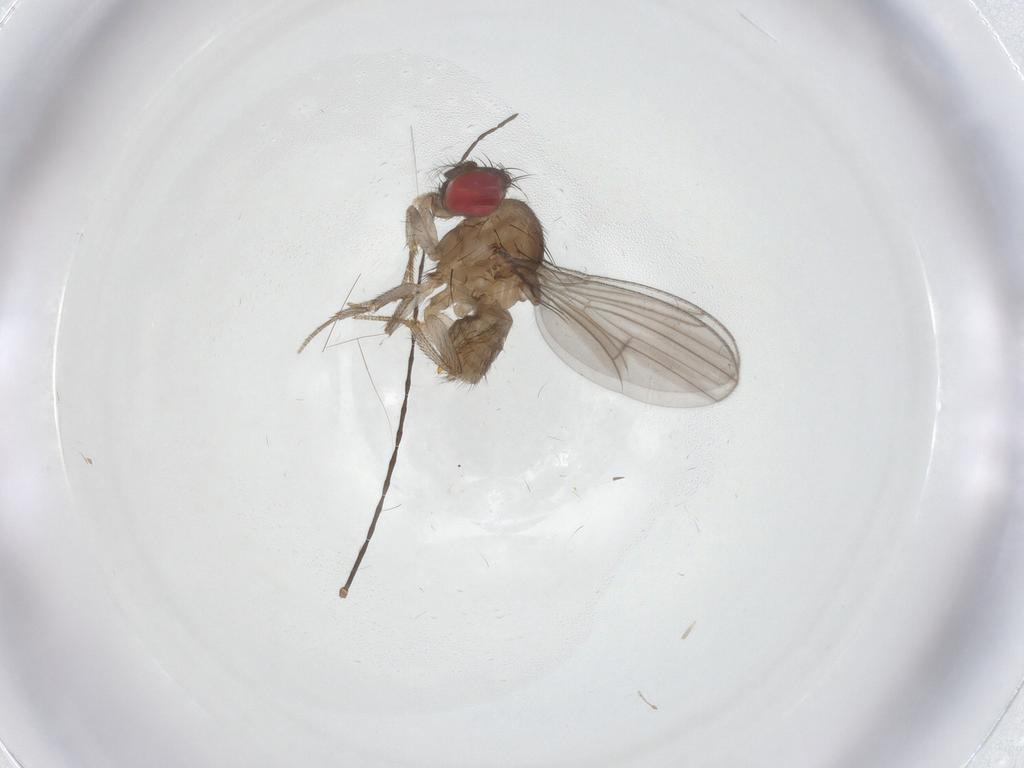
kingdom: Animalia
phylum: Arthropoda
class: Insecta
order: Diptera
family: Drosophilidae
